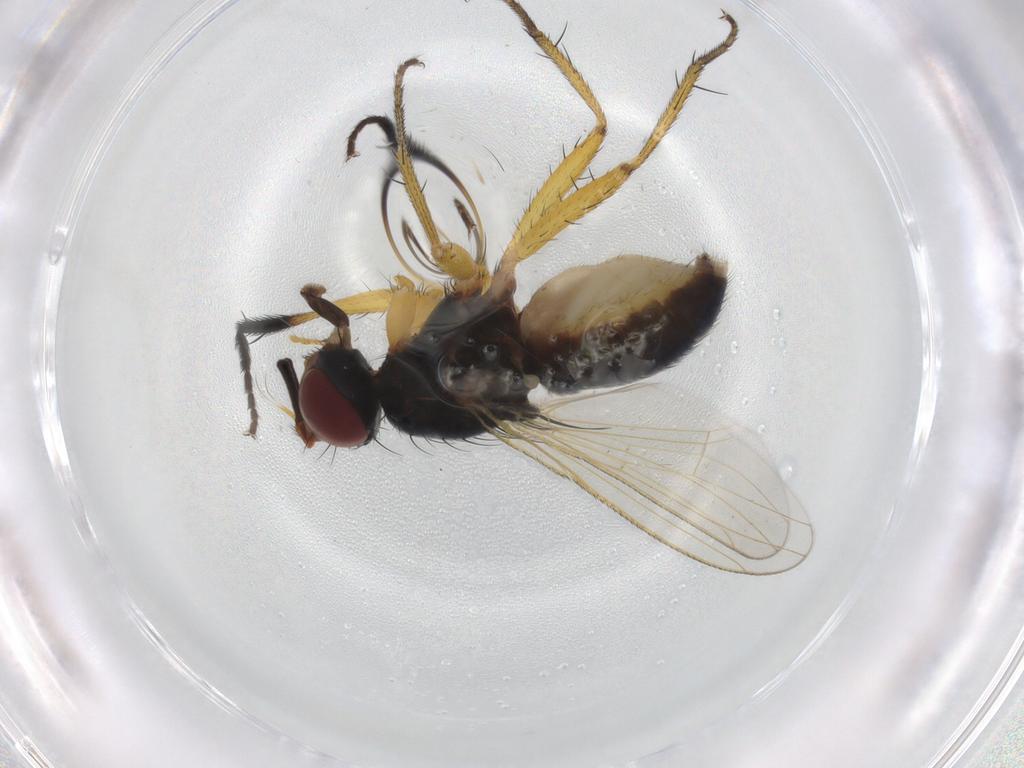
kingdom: Animalia
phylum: Arthropoda
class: Insecta
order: Diptera
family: Muscidae
